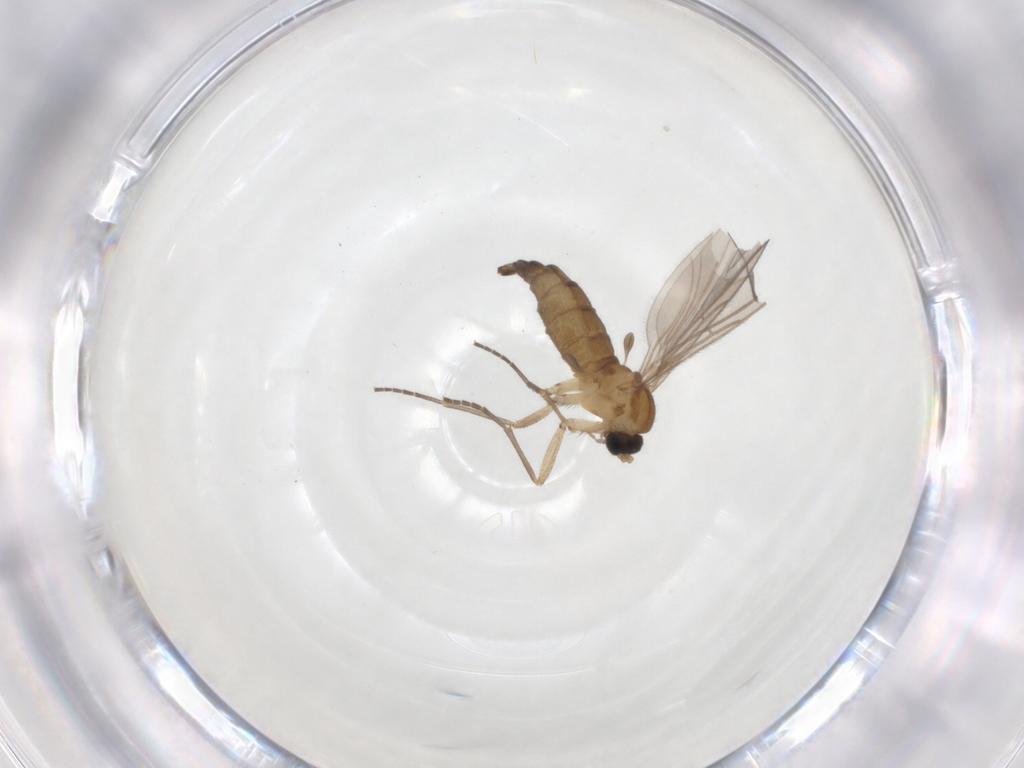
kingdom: Animalia
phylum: Arthropoda
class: Insecta
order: Diptera
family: Sciaridae
